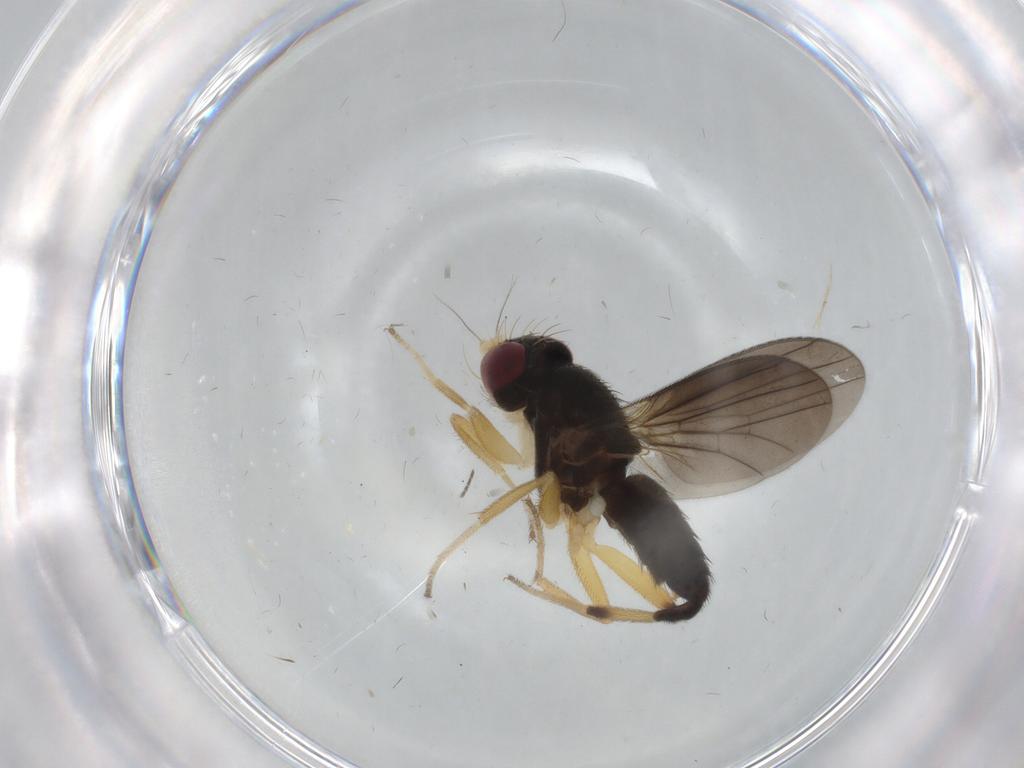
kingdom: Animalia
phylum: Arthropoda
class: Insecta
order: Diptera
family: Clusiidae
